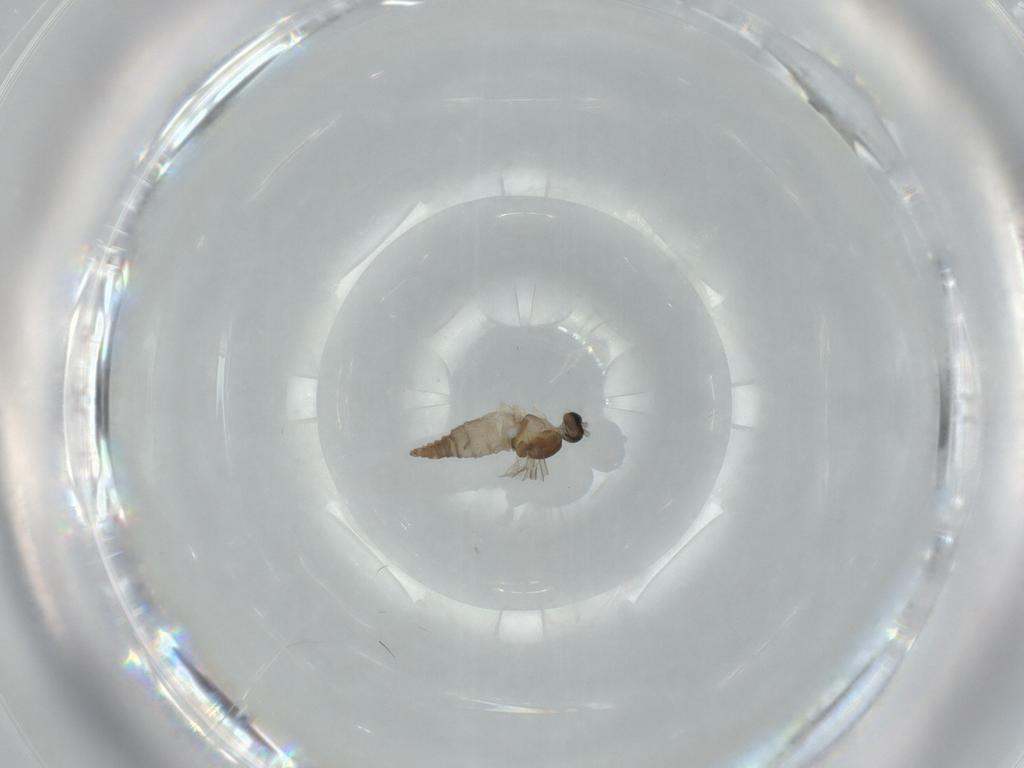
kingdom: Animalia
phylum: Arthropoda
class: Insecta
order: Diptera
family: Cecidomyiidae
